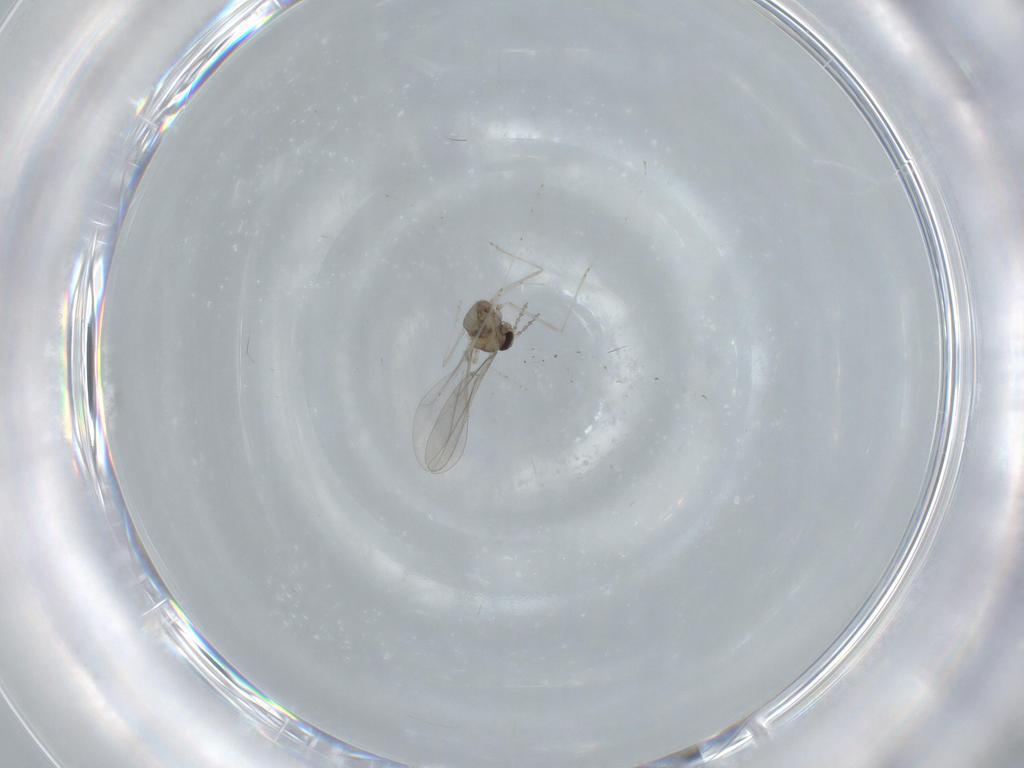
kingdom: Animalia
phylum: Arthropoda
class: Insecta
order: Diptera
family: Cecidomyiidae
